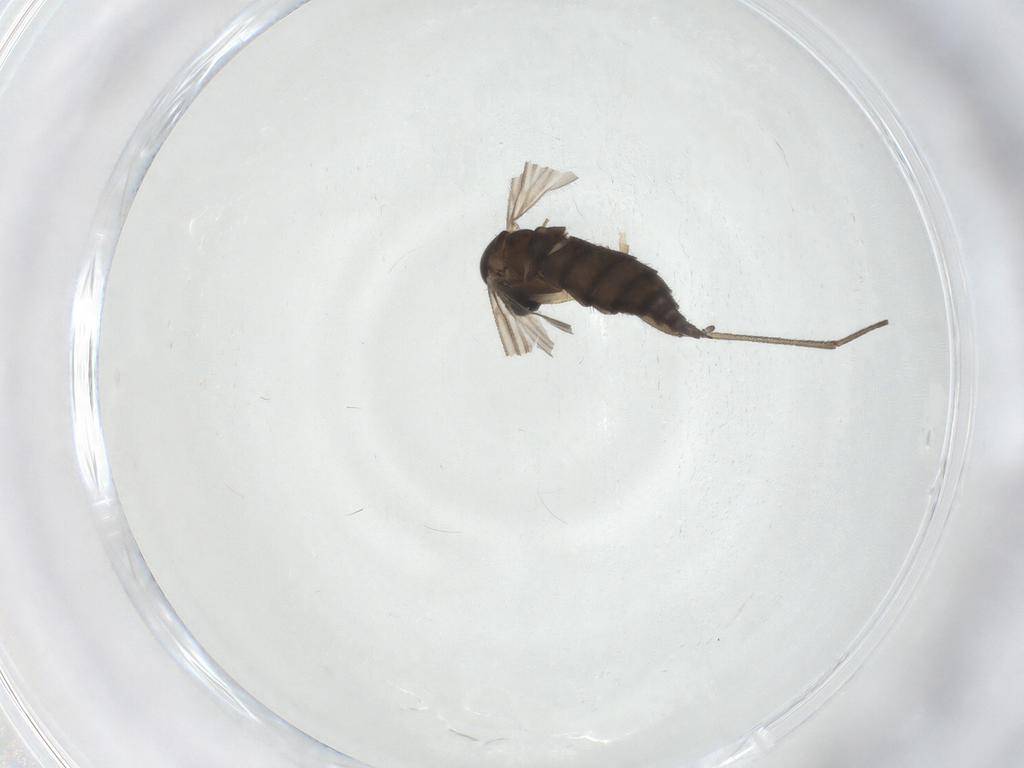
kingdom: Animalia
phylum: Arthropoda
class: Insecta
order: Diptera
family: Sciaridae
